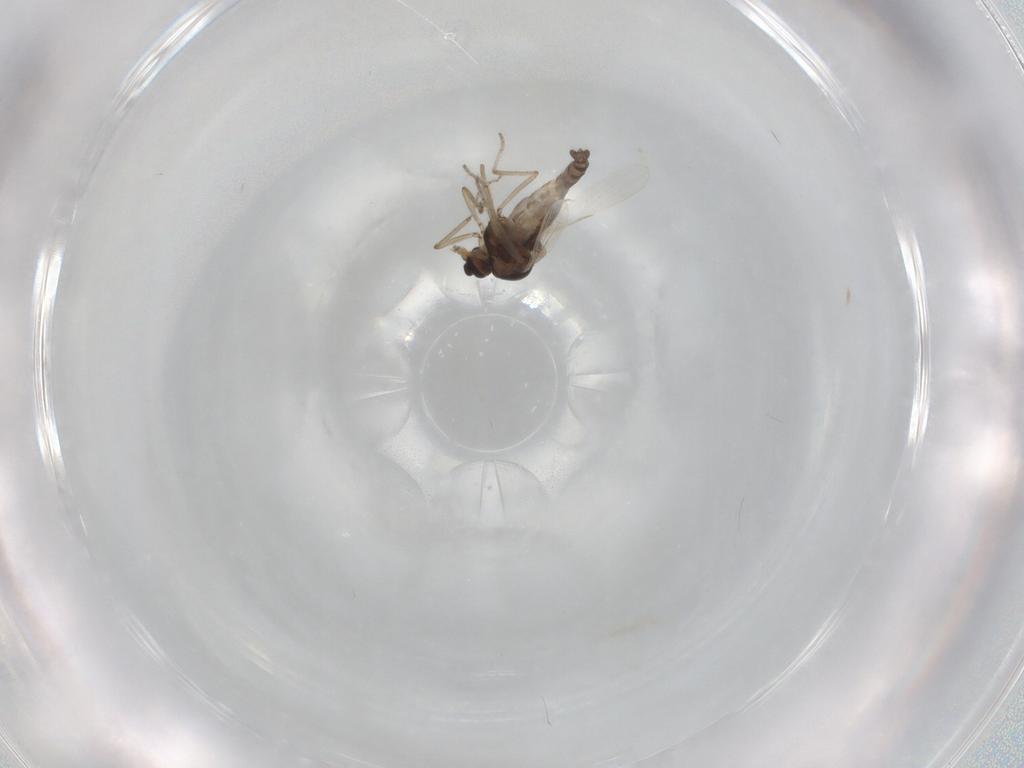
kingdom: Animalia
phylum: Arthropoda
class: Insecta
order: Diptera
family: Ceratopogonidae
